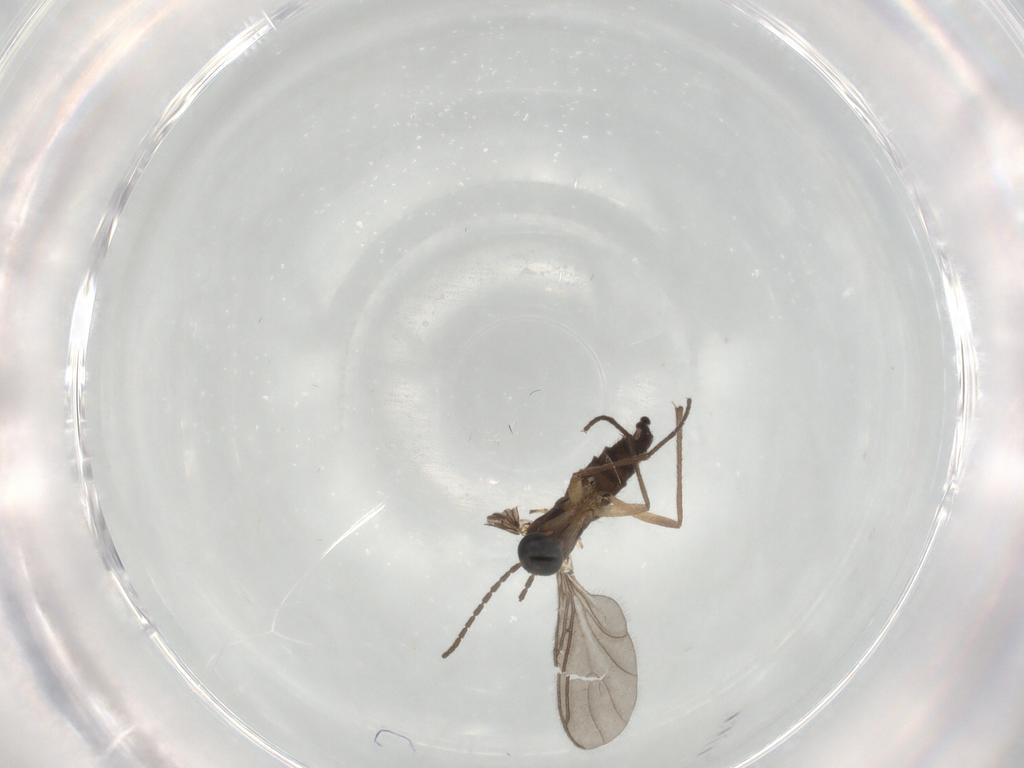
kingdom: Animalia
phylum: Arthropoda
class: Insecta
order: Diptera
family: Sciaridae
